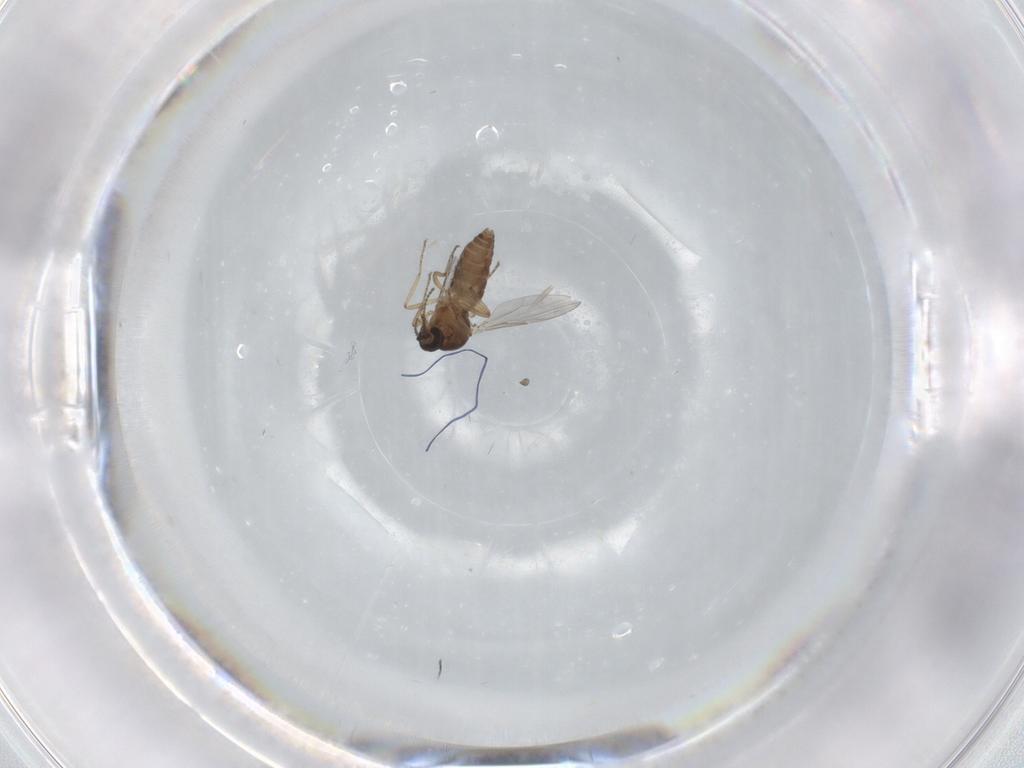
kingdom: Animalia
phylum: Arthropoda
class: Insecta
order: Diptera
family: Ceratopogonidae
